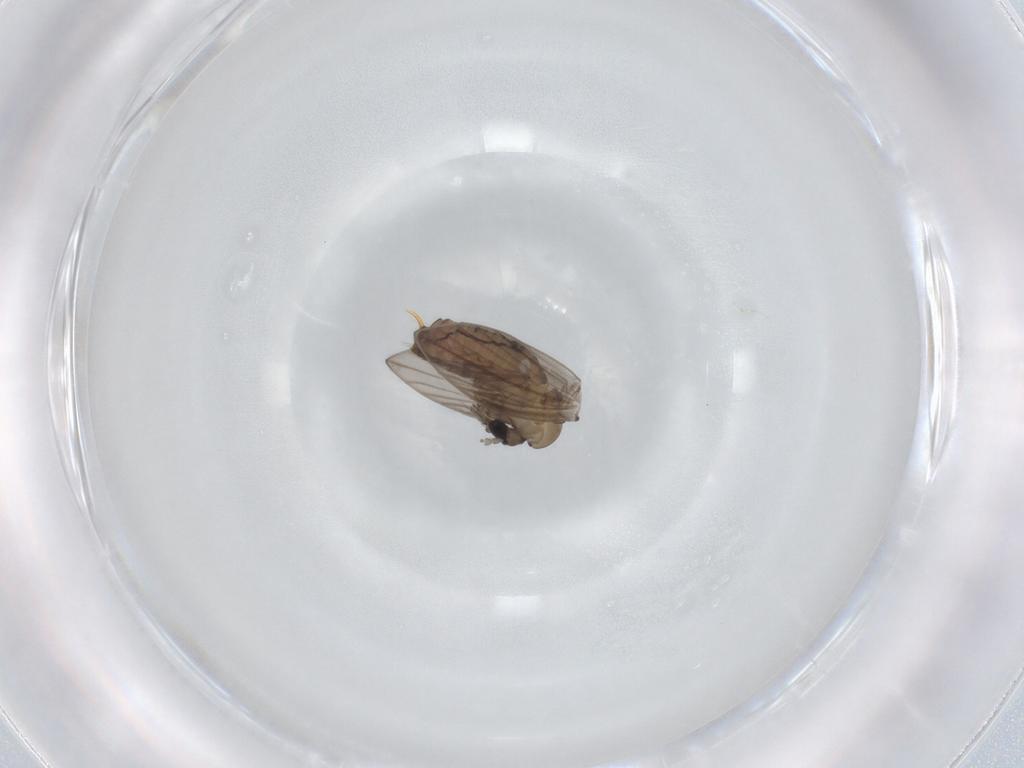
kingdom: Animalia
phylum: Arthropoda
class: Insecta
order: Diptera
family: Psychodidae
